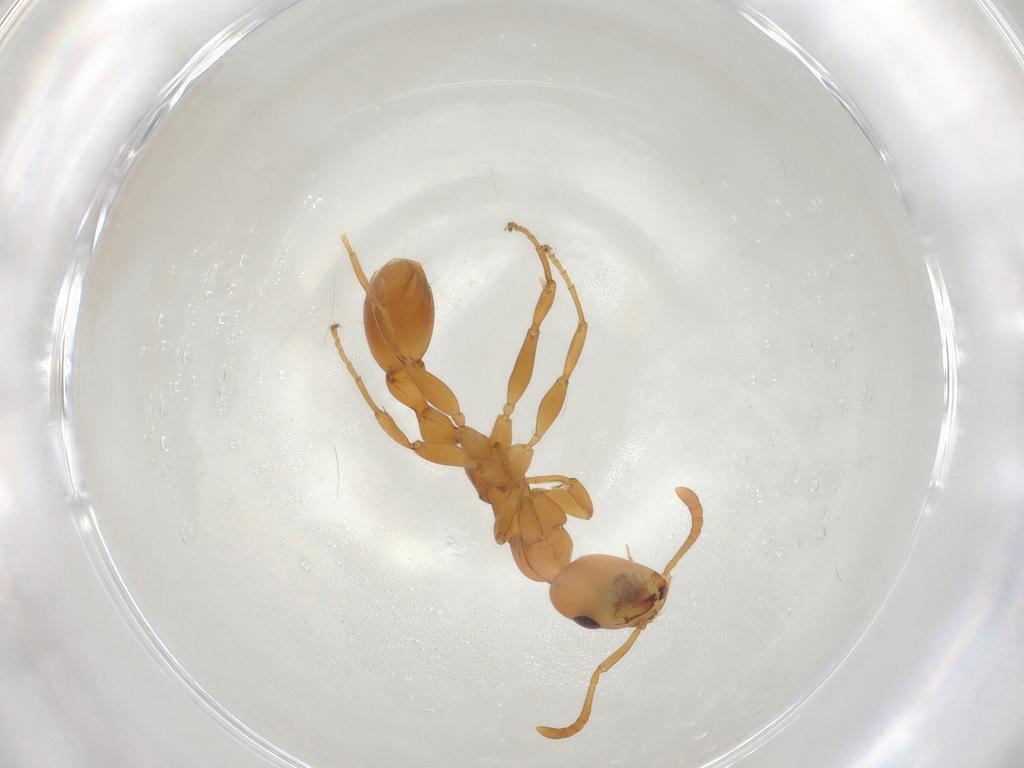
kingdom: Animalia
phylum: Arthropoda
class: Insecta
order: Hymenoptera
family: Formicidae
